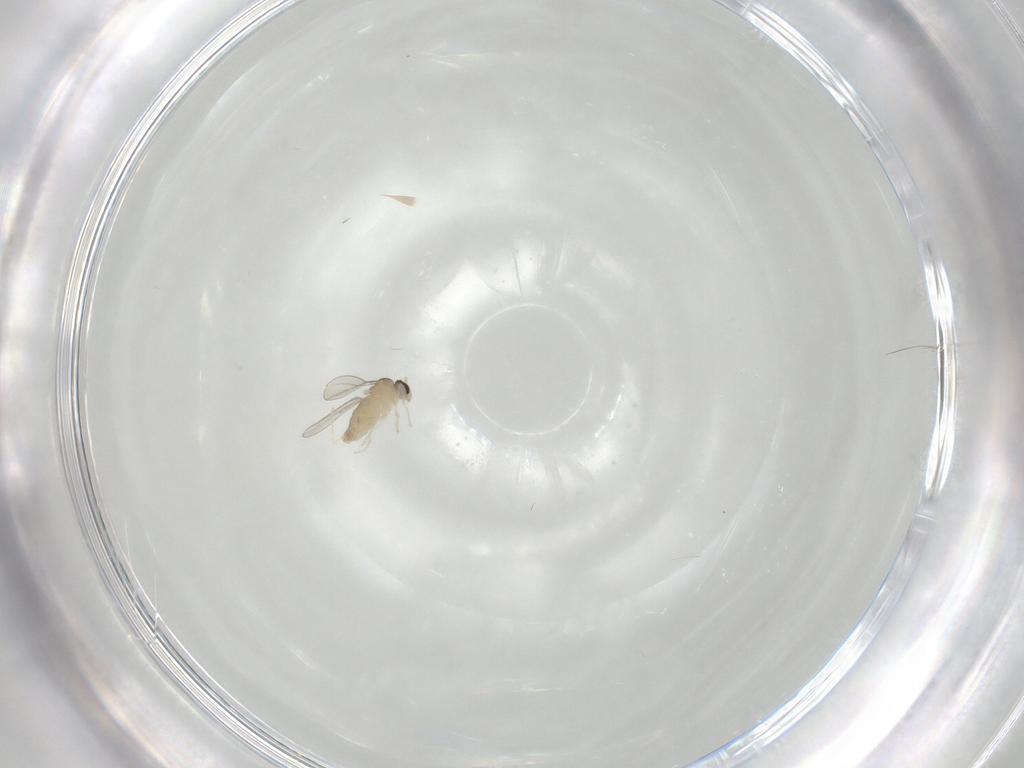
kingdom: Animalia
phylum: Arthropoda
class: Insecta
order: Diptera
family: Cecidomyiidae
